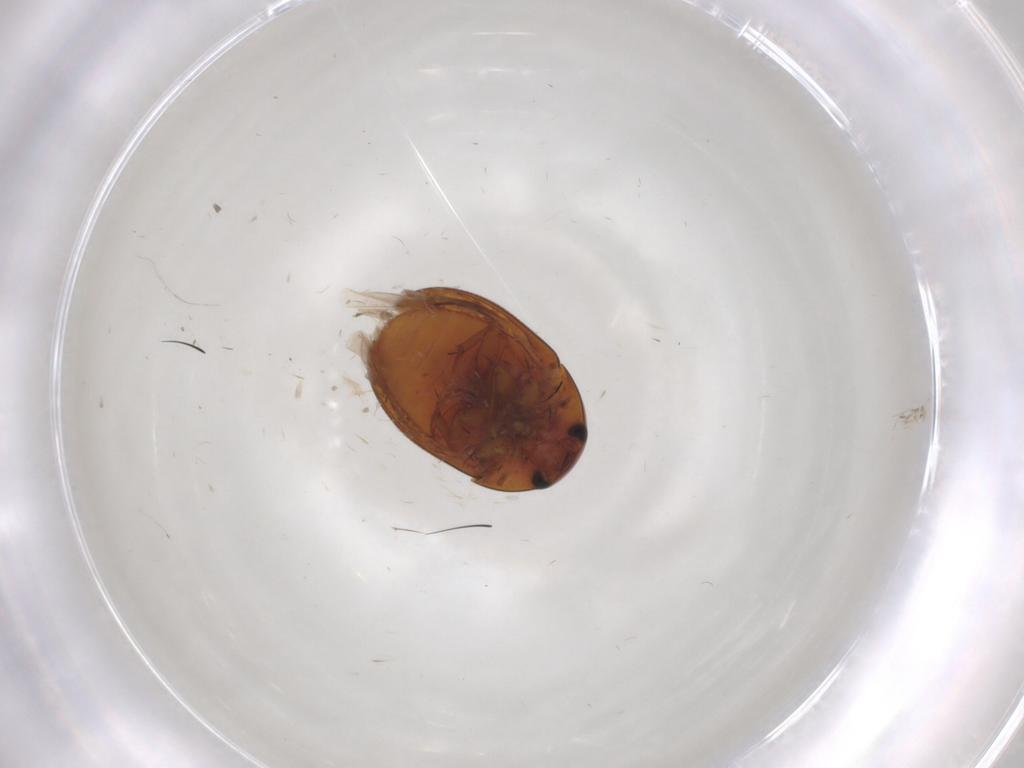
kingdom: Animalia
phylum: Arthropoda
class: Insecta
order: Coleoptera
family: Phalacridae
